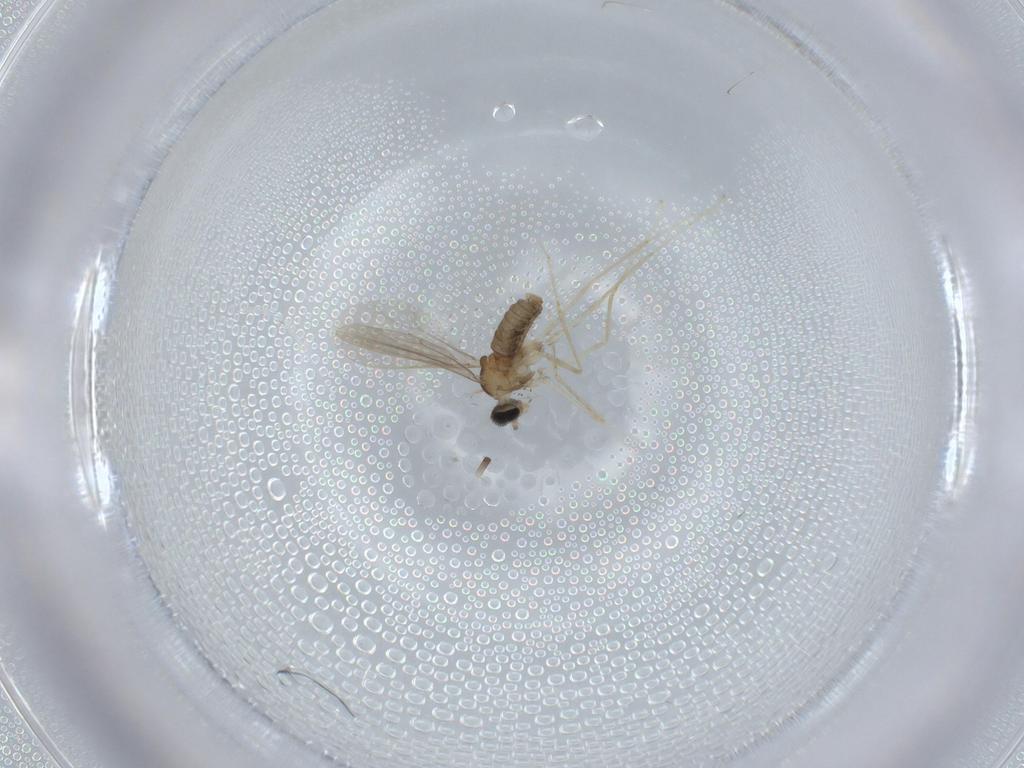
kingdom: Animalia
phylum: Arthropoda
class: Insecta
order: Diptera
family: Cecidomyiidae
